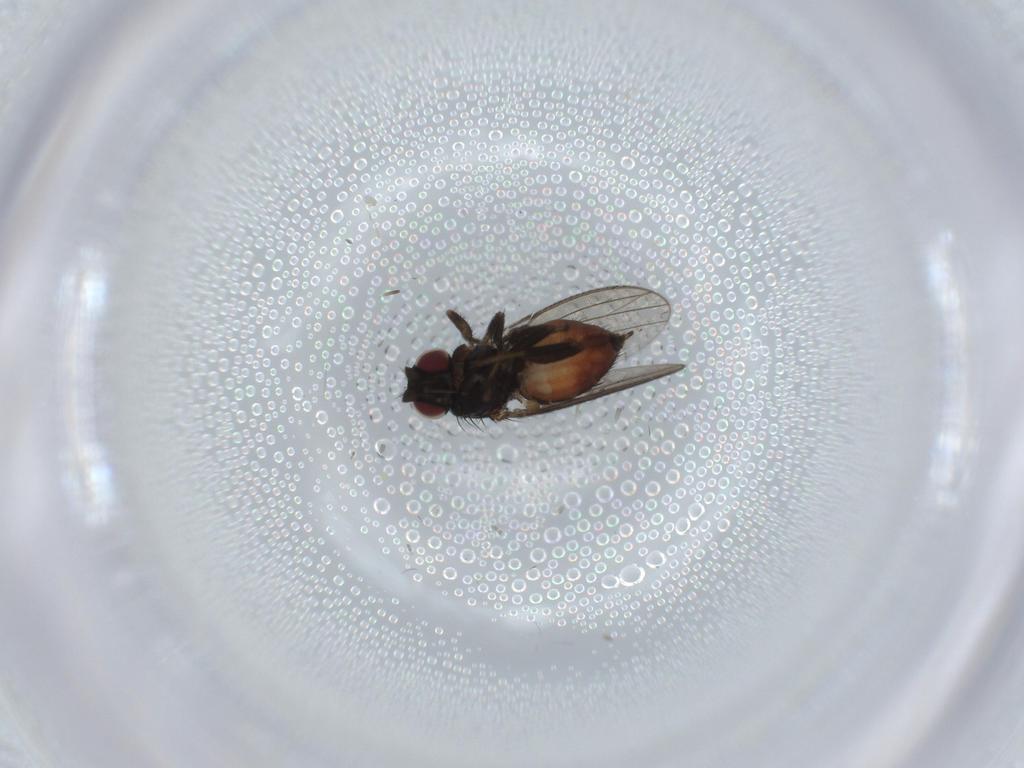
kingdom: Animalia
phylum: Arthropoda
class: Insecta
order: Diptera
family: Milichiidae
